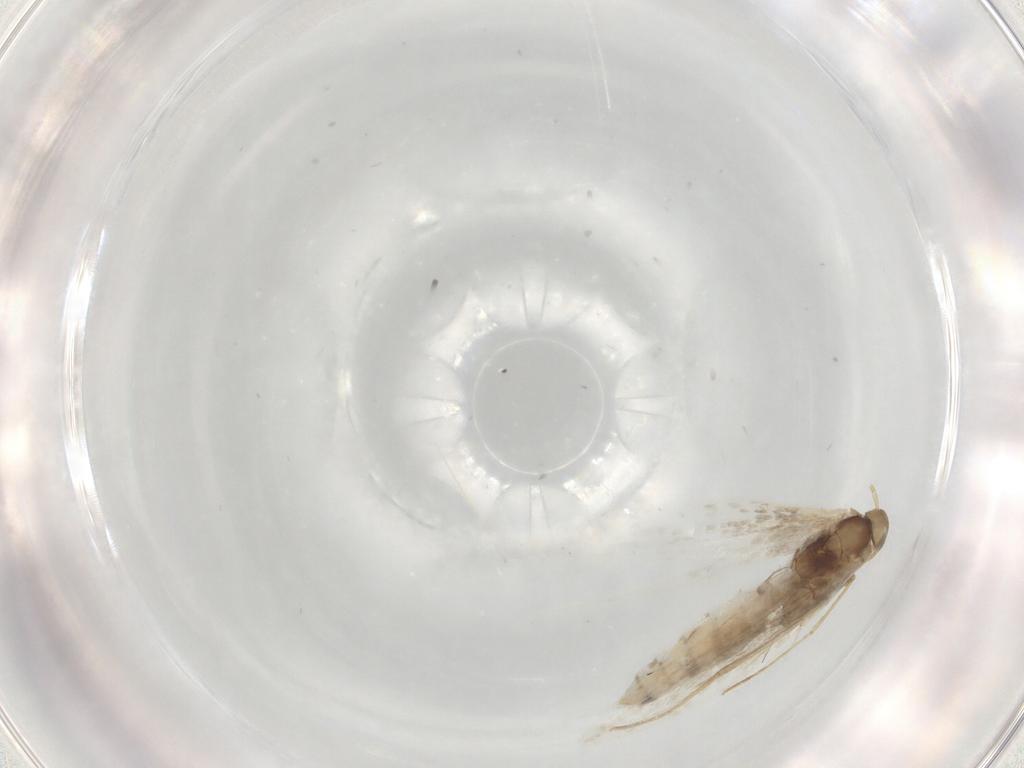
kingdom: Animalia
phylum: Arthropoda
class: Insecta
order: Lepidoptera
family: Gracillariidae
